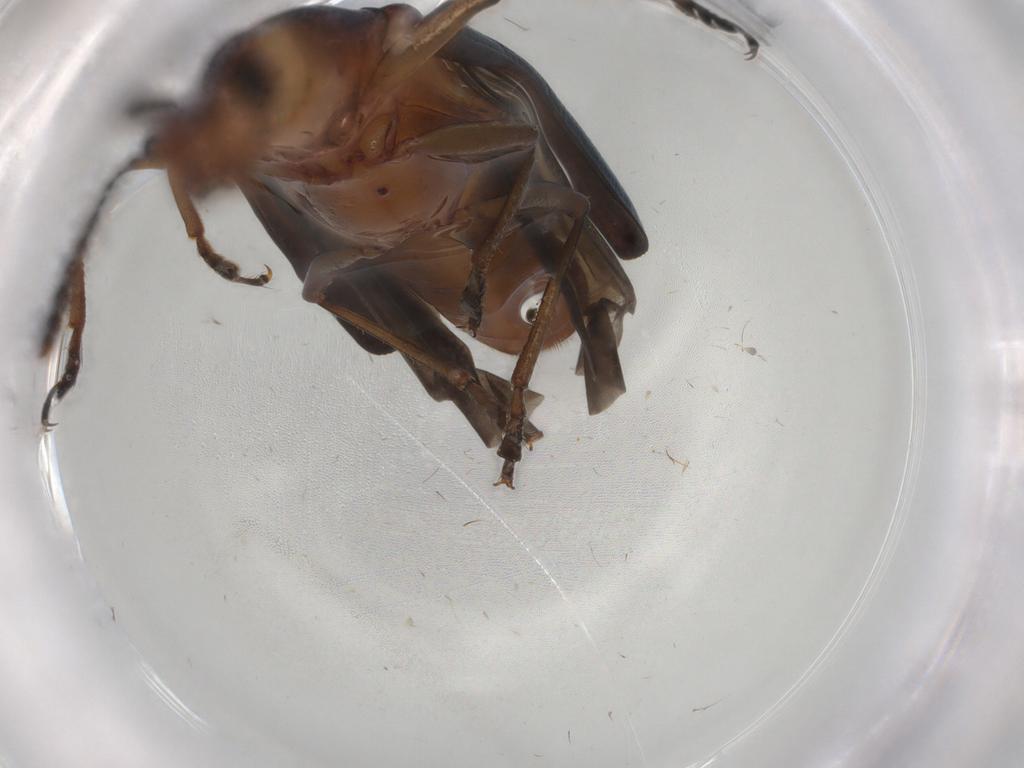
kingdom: Animalia
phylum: Arthropoda
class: Insecta
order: Coleoptera
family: Erotylidae
